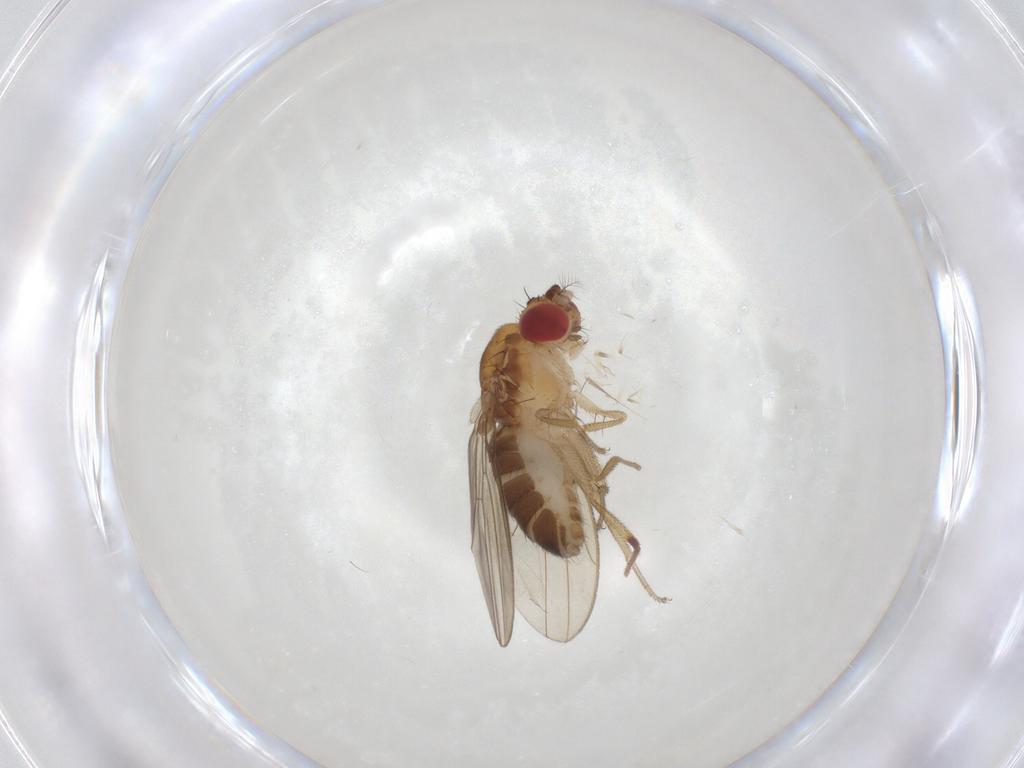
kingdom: Animalia
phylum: Arthropoda
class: Insecta
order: Diptera
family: Drosophilidae
